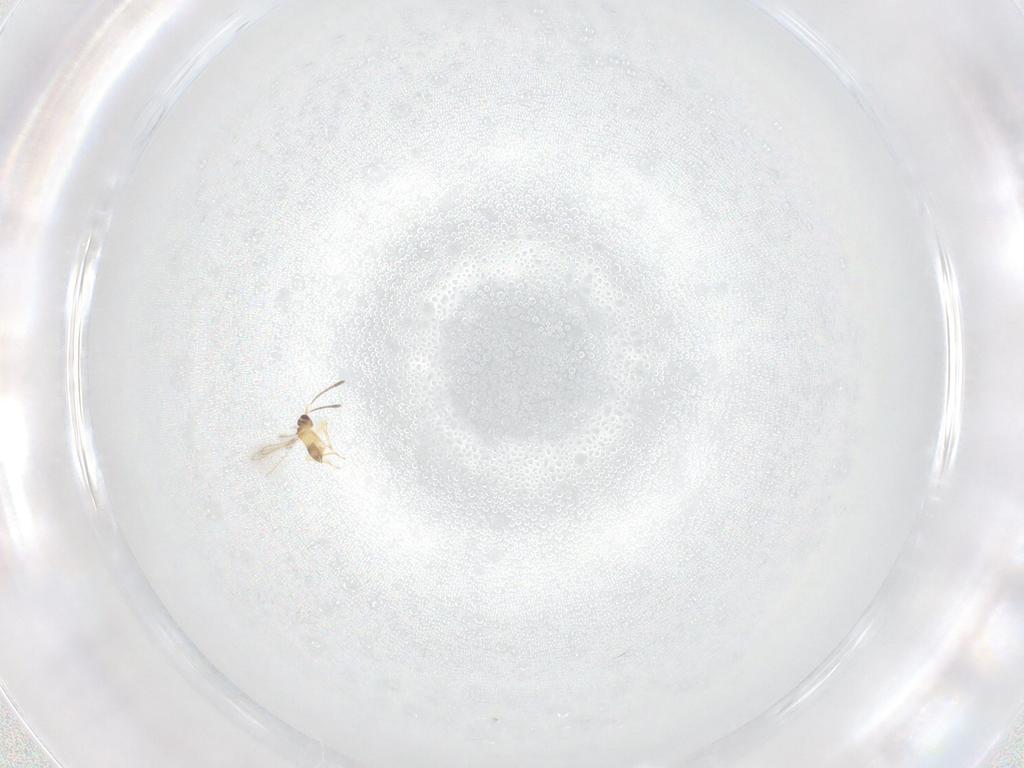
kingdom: Animalia
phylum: Arthropoda
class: Insecta
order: Hymenoptera
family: Mymaridae
